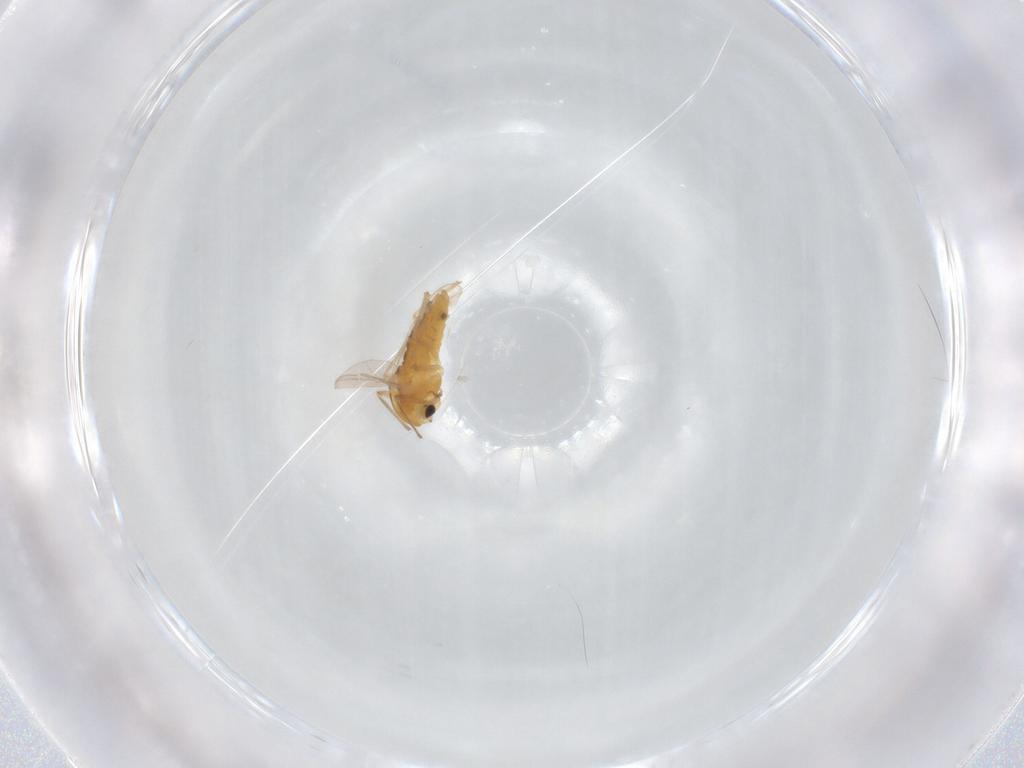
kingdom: Animalia
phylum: Arthropoda
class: Insecta
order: Diptera
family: Chironomidae
